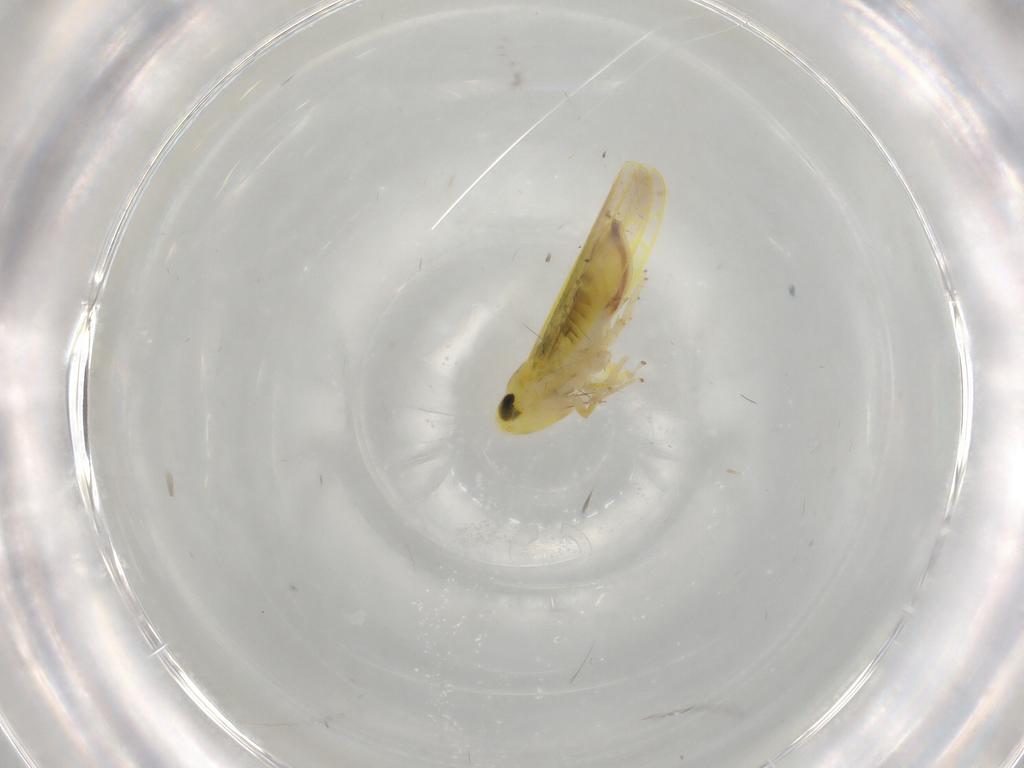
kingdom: Animalia
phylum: Arthropoda
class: Insecta
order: Hemiptera
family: Cicadellidae
